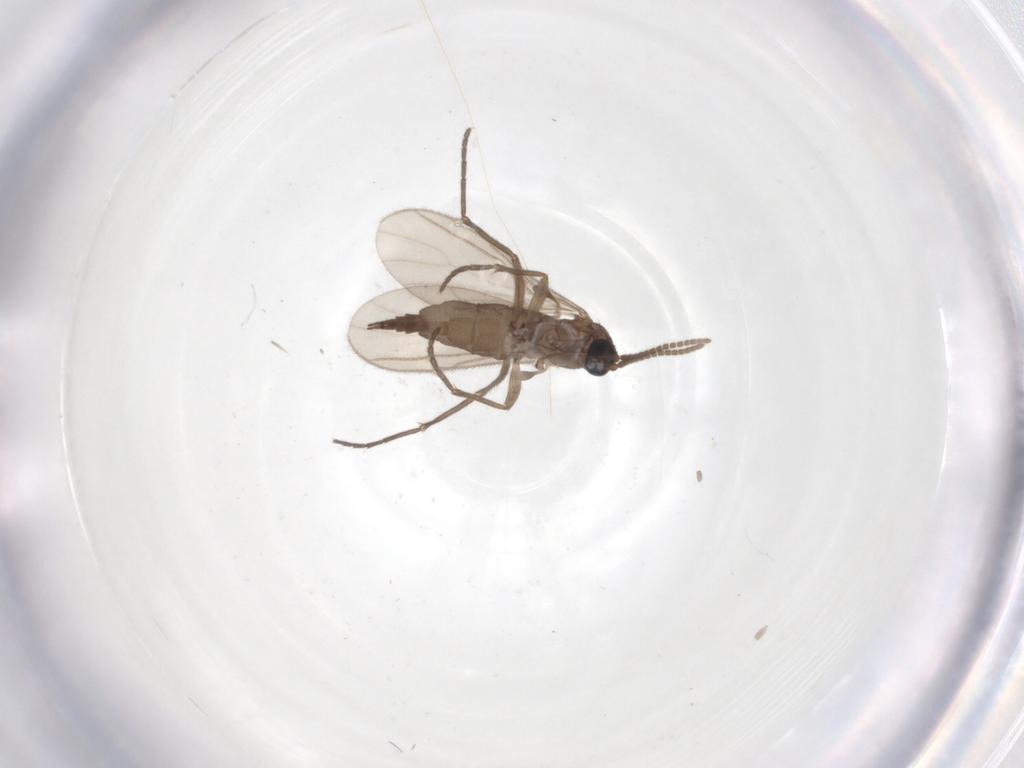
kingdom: Animalia
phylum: Arthropoda
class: Insecta
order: Diptera
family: Sciaridae
